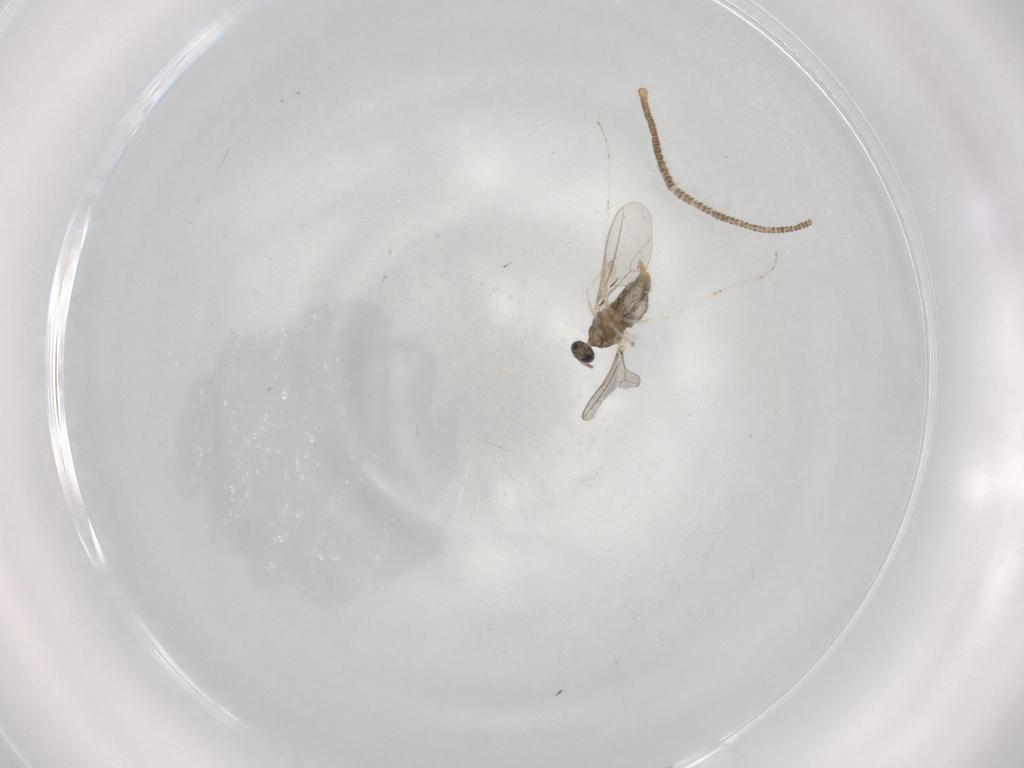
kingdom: Animalia
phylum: Arthropoda
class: Insecta
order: Diptera
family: Cecidomyiidae
